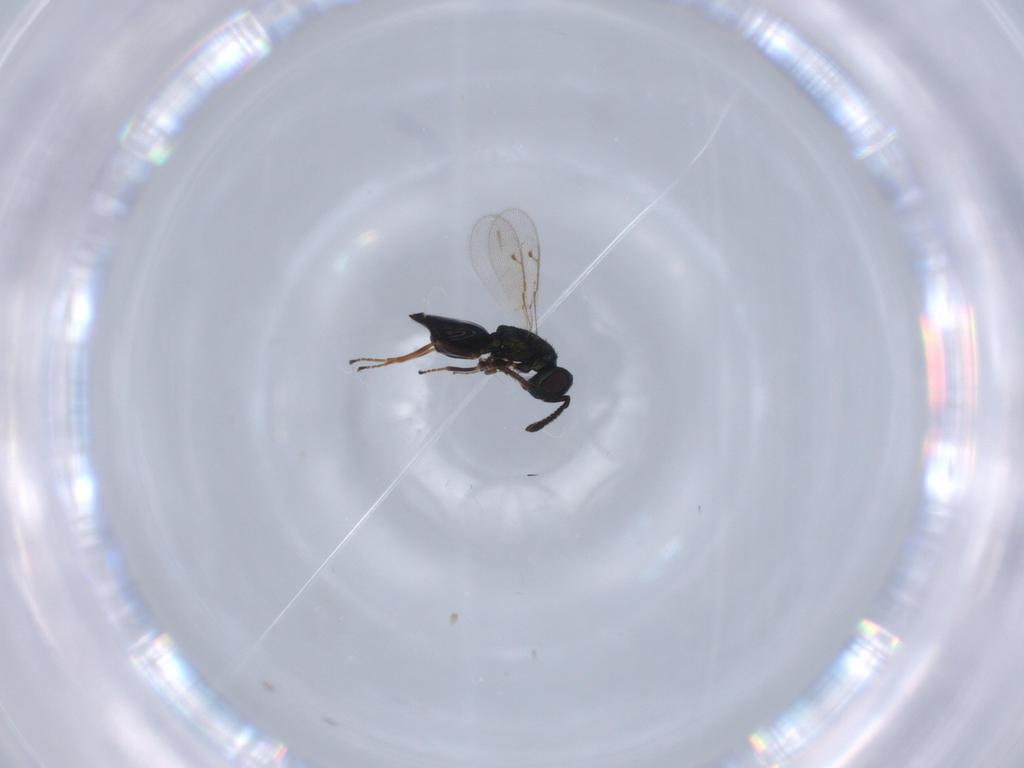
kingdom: Animalia
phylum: Arthropoda
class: Insecta
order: Hymenoptera
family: Pteromalidae
